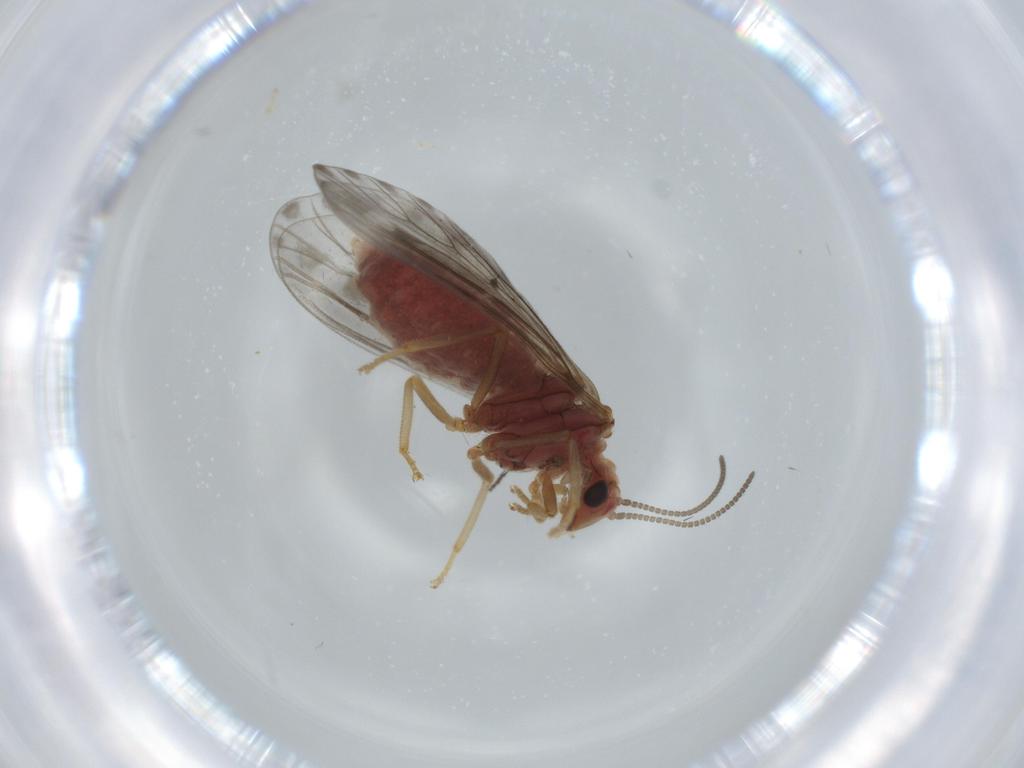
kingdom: Animalia
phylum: Arthropoda
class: Insecta
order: Neuroptera
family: Coniopterygidae
